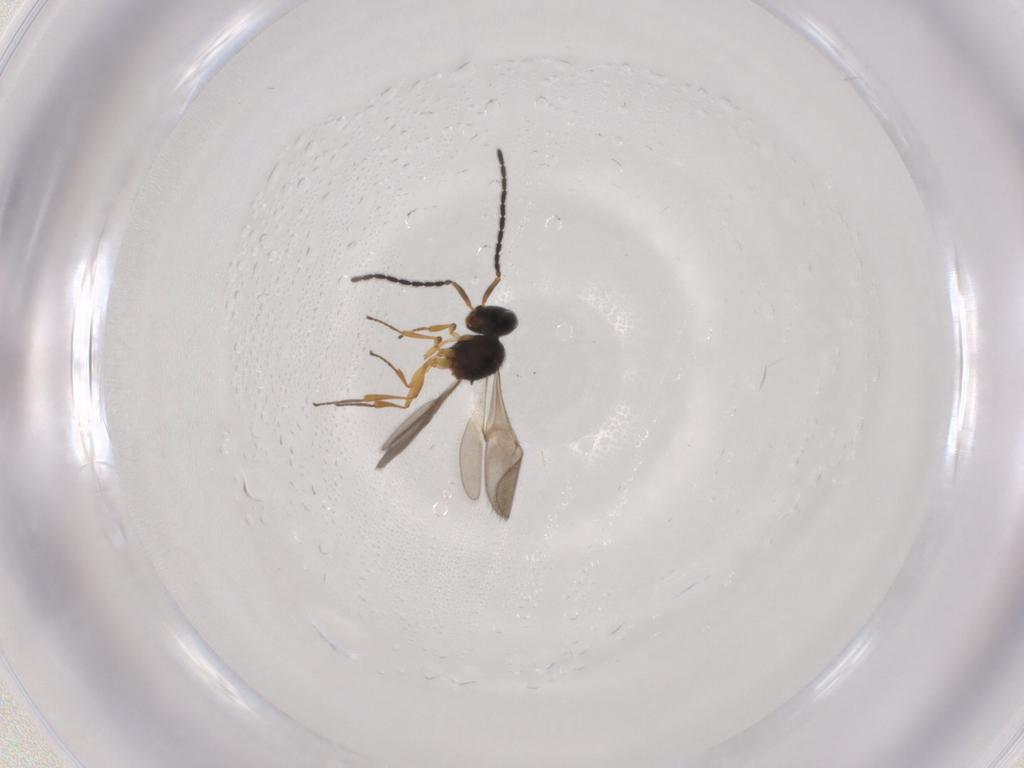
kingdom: Animalia
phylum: Arthropoda
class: Insecta
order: Hymenoptera
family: Scelionidae
